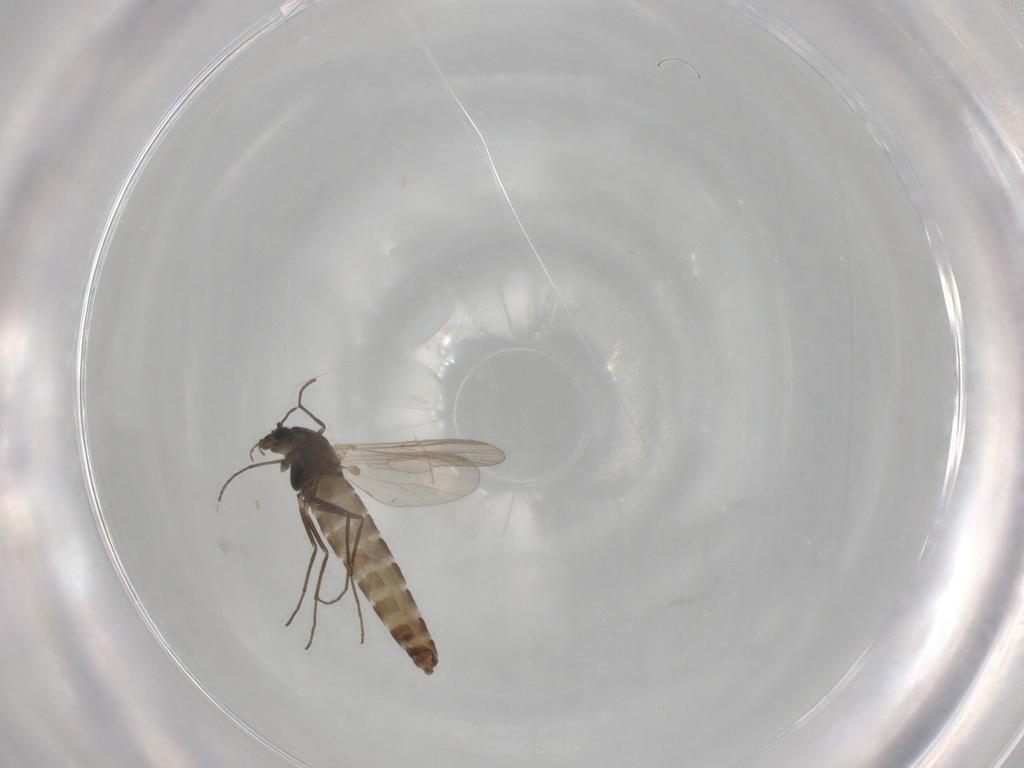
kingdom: Animalia
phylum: Arthropoda
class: Insecta
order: Diptera
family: Culicidae
